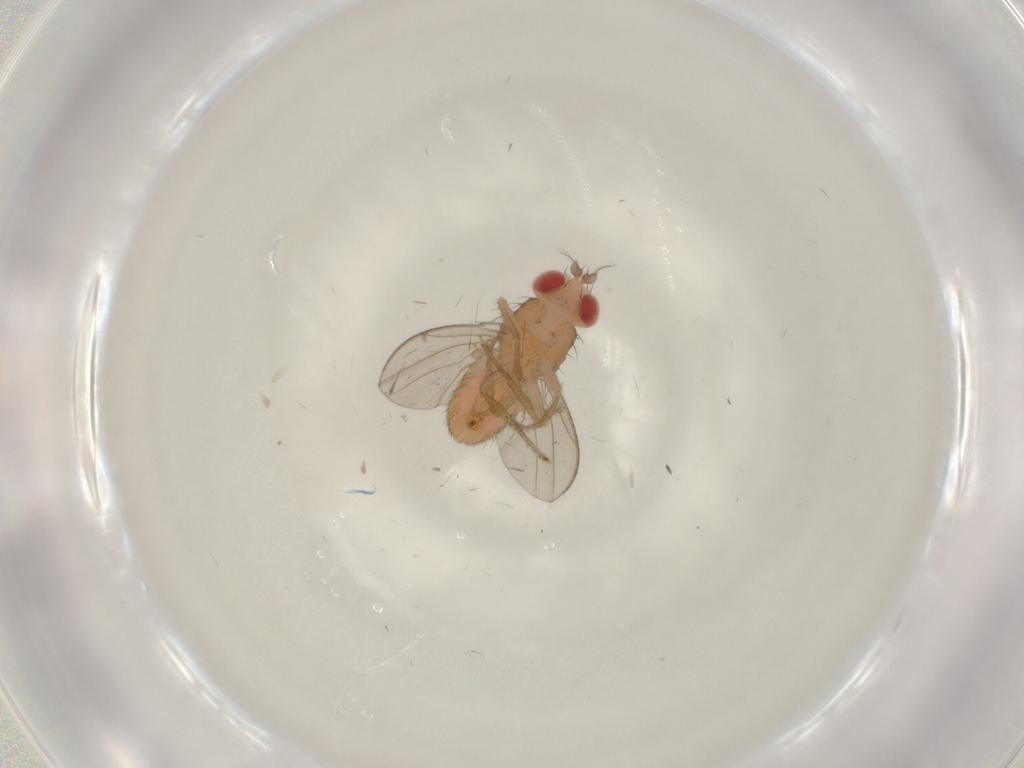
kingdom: Animalia
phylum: Arthropoda
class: Insecta
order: Diptera
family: Drosophilidae
